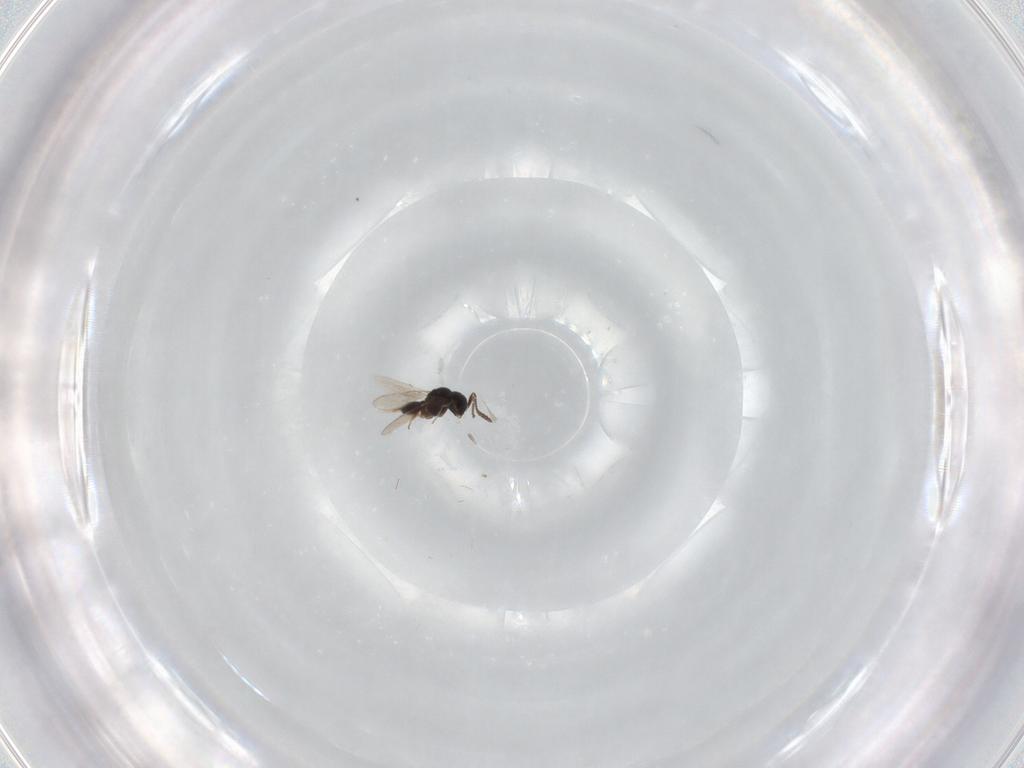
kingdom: Animalia
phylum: Arthropoda
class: Insecta
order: Hymenoptera
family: Scelionidae
